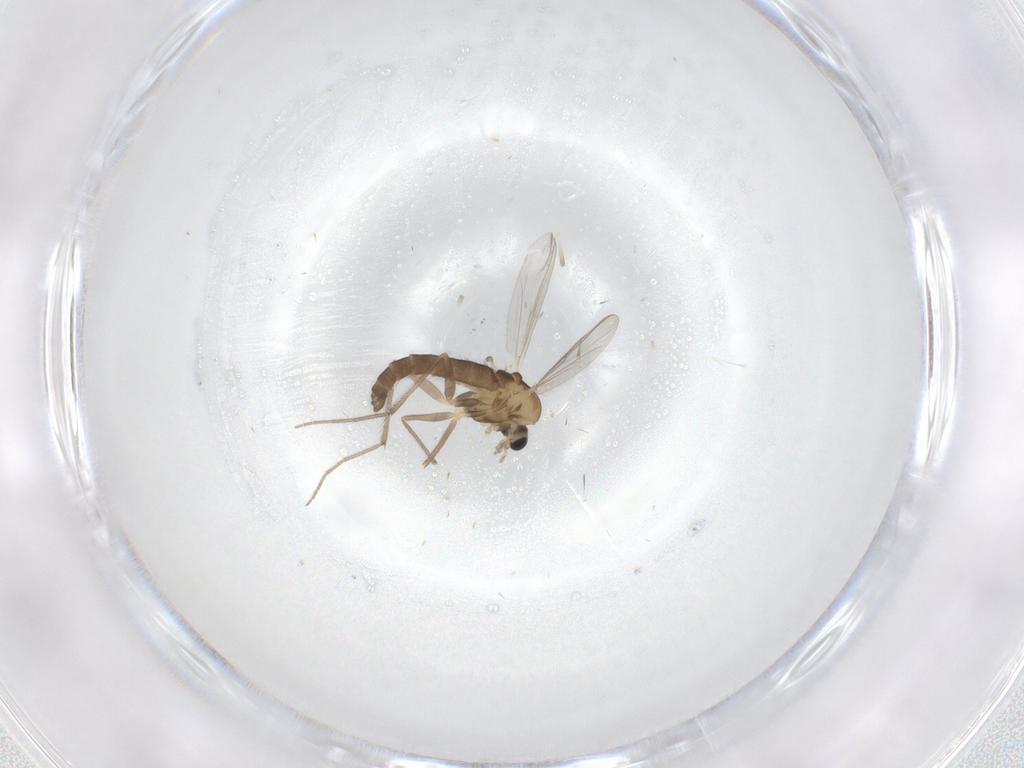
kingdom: Animalia
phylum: Arthropoda
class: Insecta
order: Diptera
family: Chironomidae
